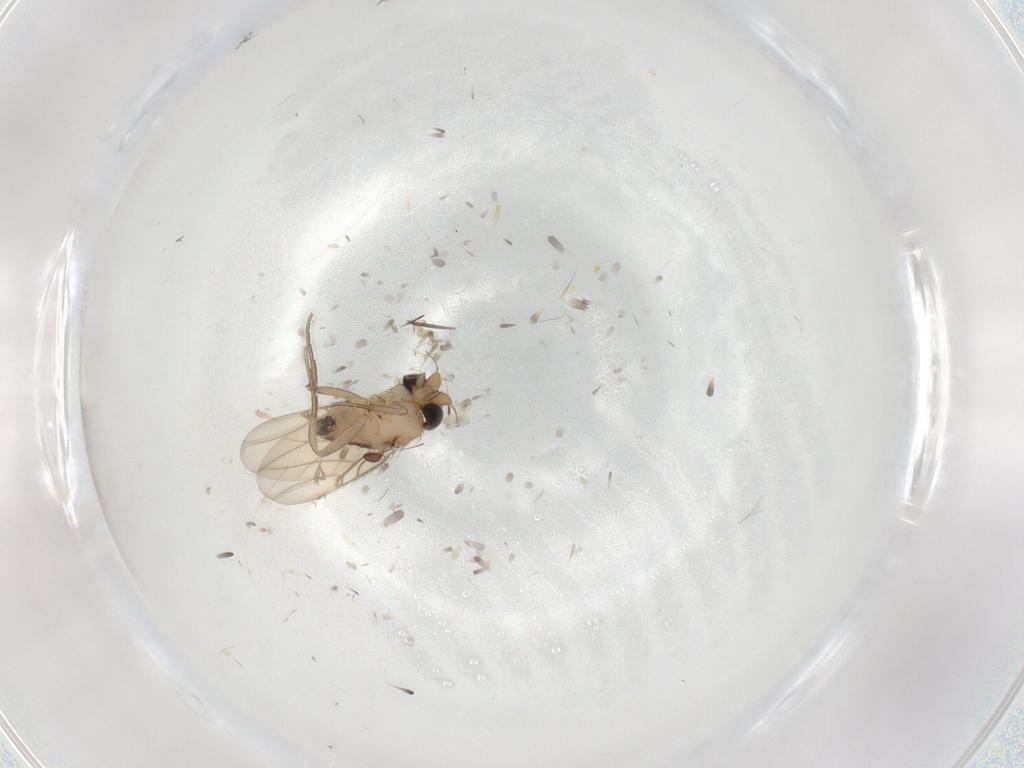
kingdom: Animalia
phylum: Arthropoda
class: Insecta
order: Diptera
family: Phoridae
